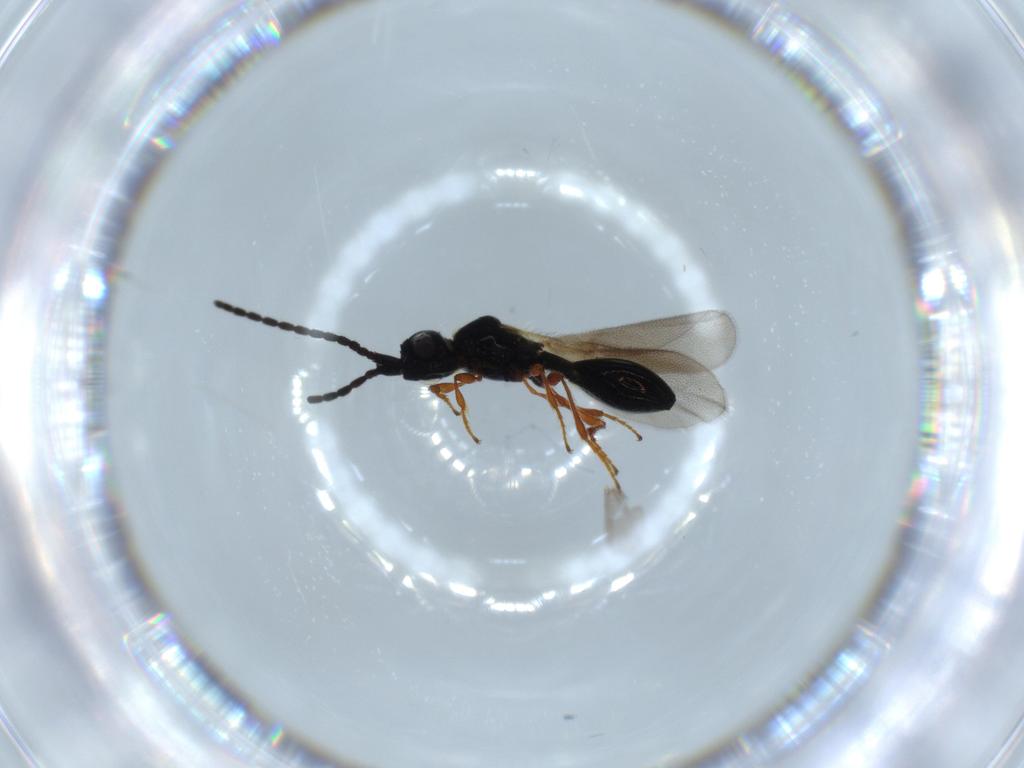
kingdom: Animalia
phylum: Arthropoda
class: Insecta
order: Hymenoptera
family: Diapriidae
